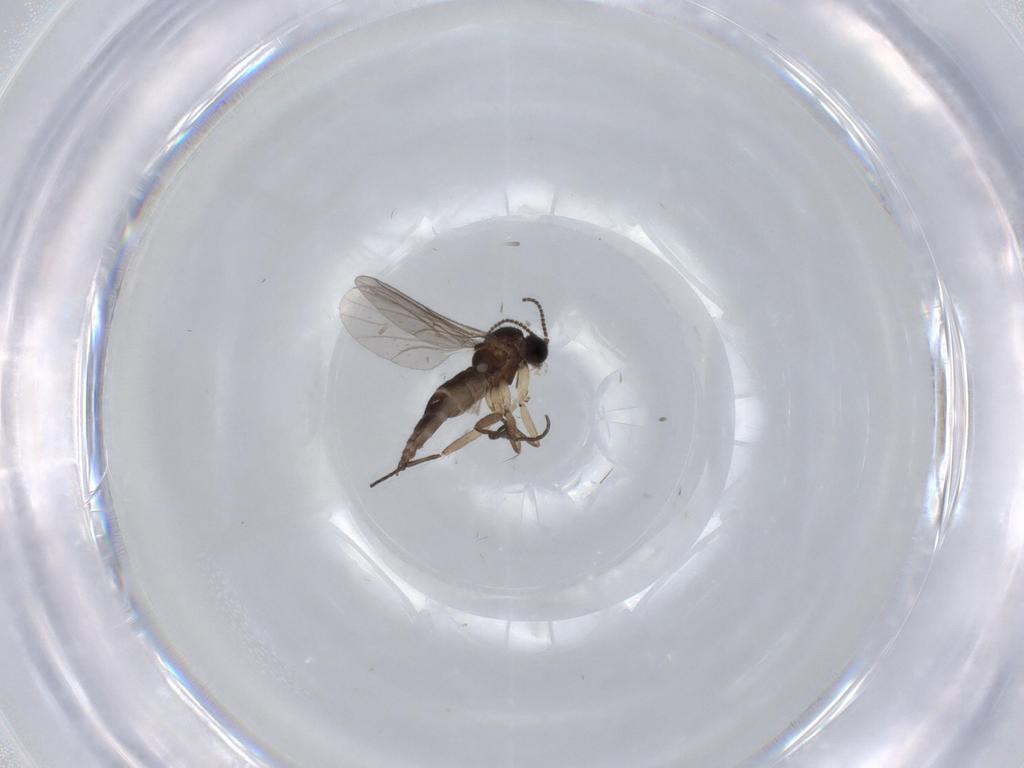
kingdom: Animalia
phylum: Arthropoda
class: Insecta
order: Diptera
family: Sciaridae
